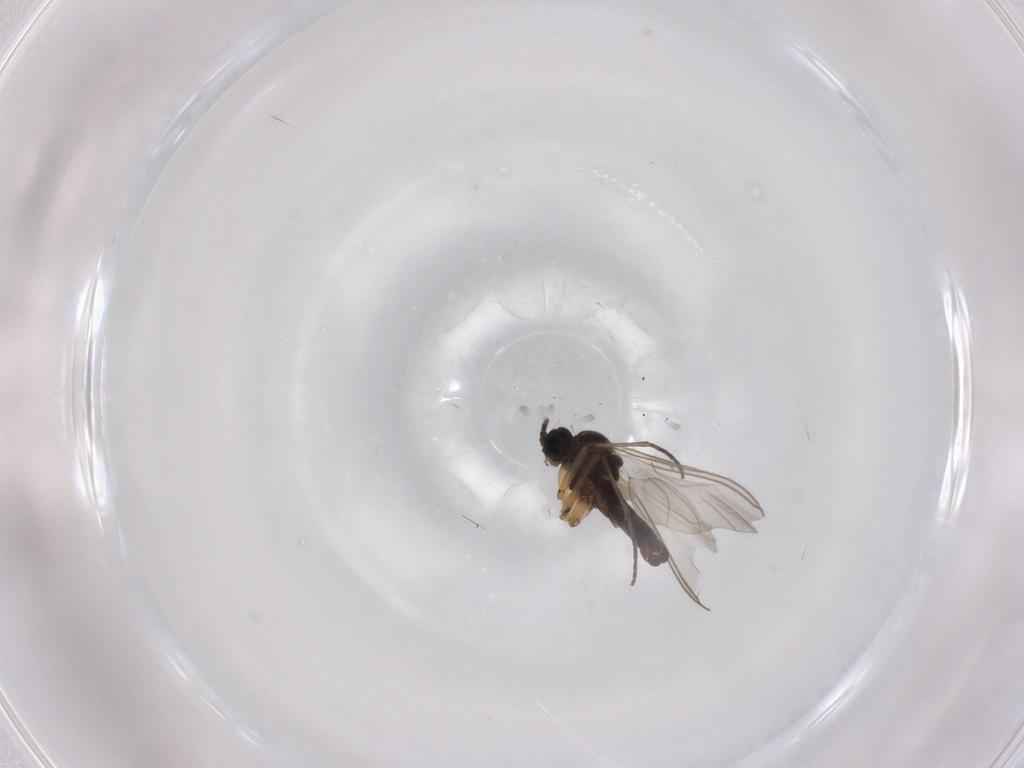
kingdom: Animalia
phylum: Arthropoda
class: Insecta
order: Diptera
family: Sciaridae
